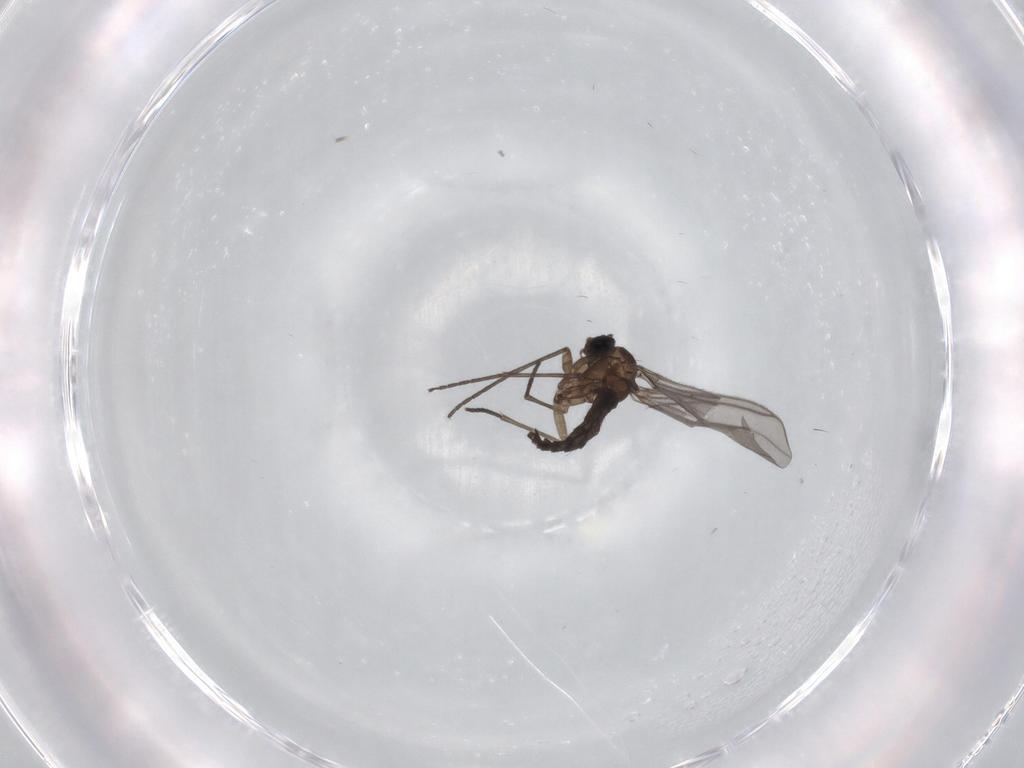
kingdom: Animalia
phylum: Arthropoda
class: Insecta
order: Diptera
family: Sciaridae
